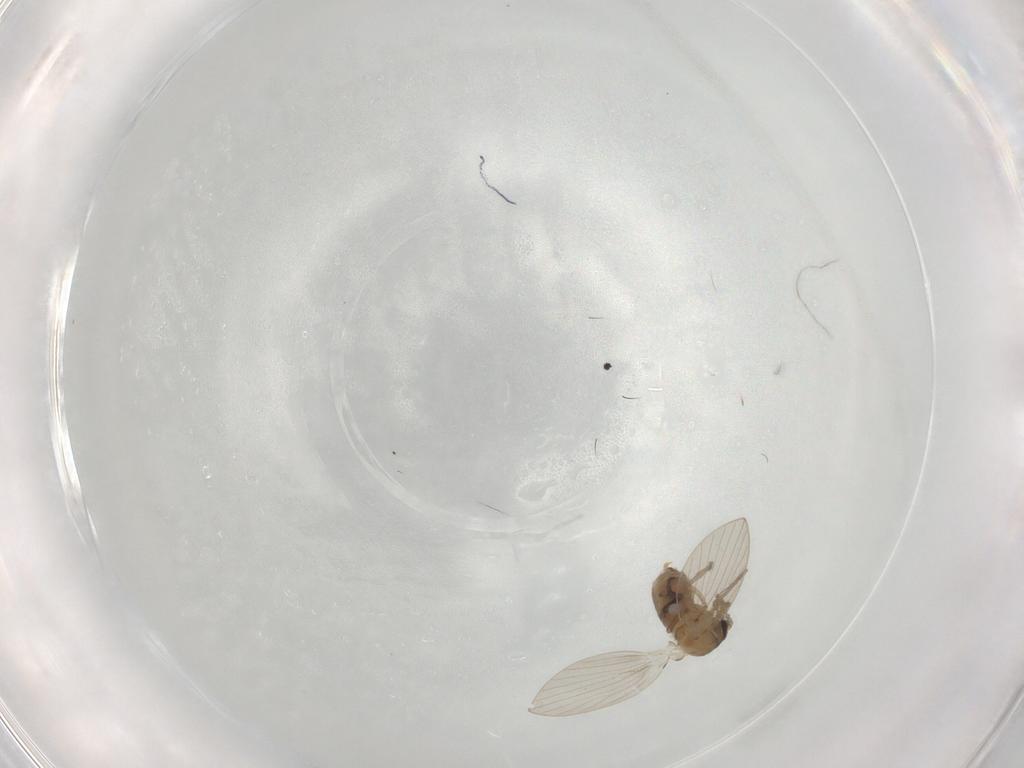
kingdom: Animalia
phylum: Arthropoda
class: Insecta
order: Diptera
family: Psychodidae
